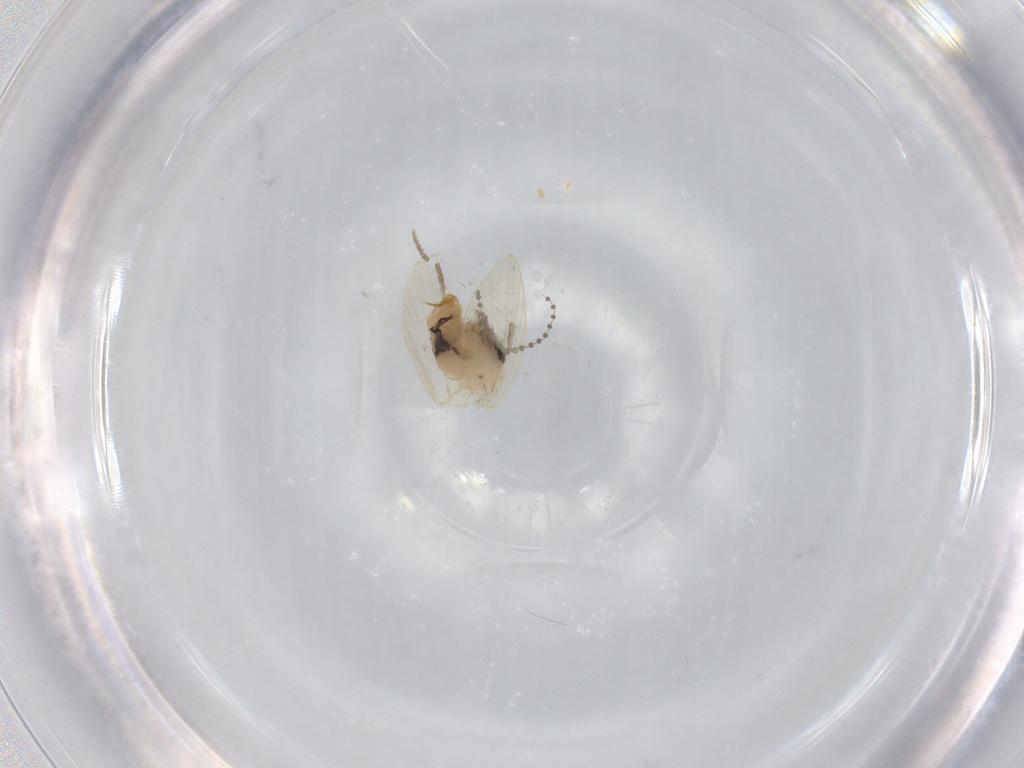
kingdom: Animalia
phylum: Arthropoda
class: Insecta
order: Diptera
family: Psychodidae
